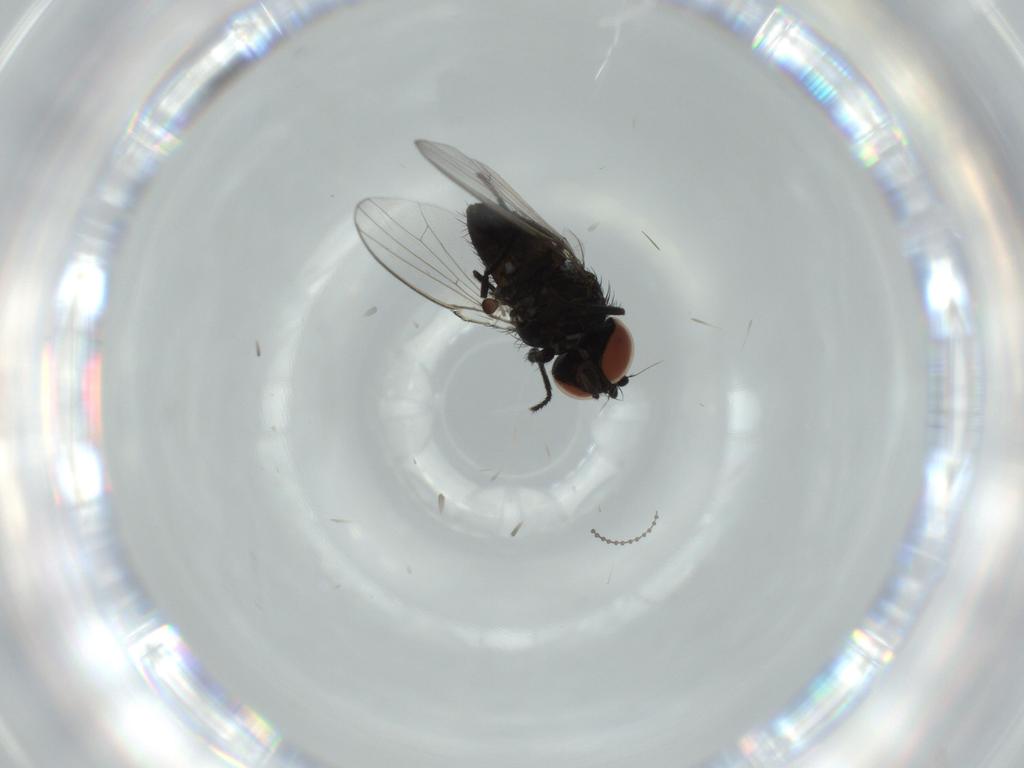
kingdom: Animalia
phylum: Arthropoda
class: Insecta
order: Diptera
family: Milichiidae
